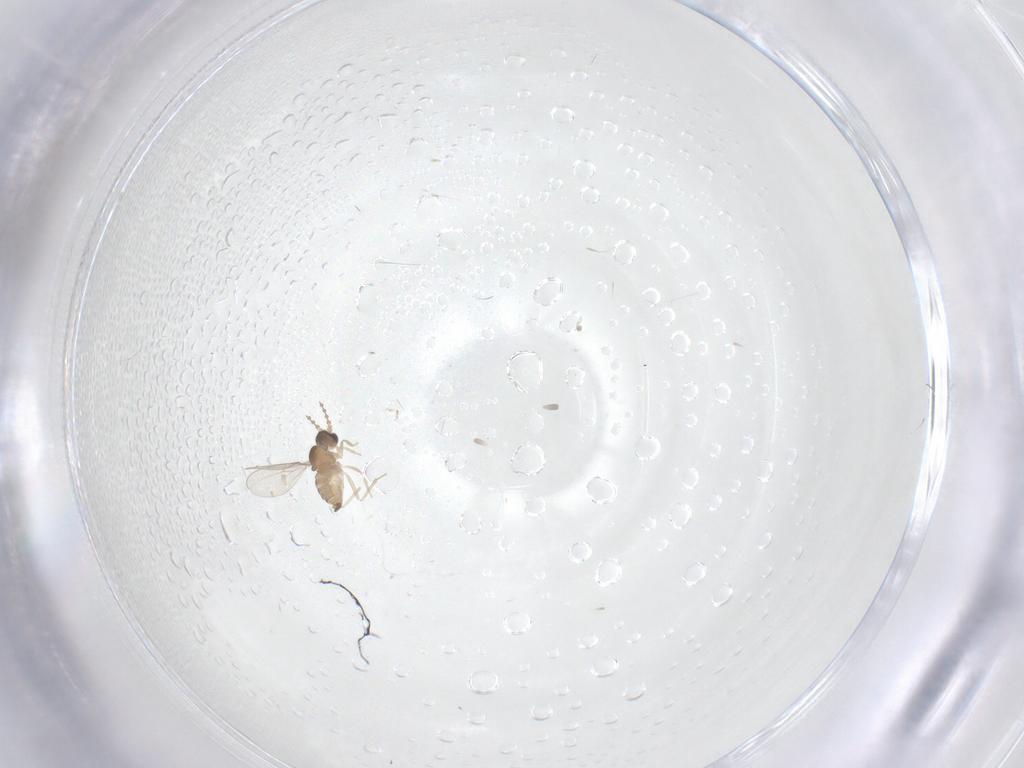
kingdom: Animalia
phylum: Arthropoda
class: Insecta
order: Diptera
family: Cecidomyiidae
